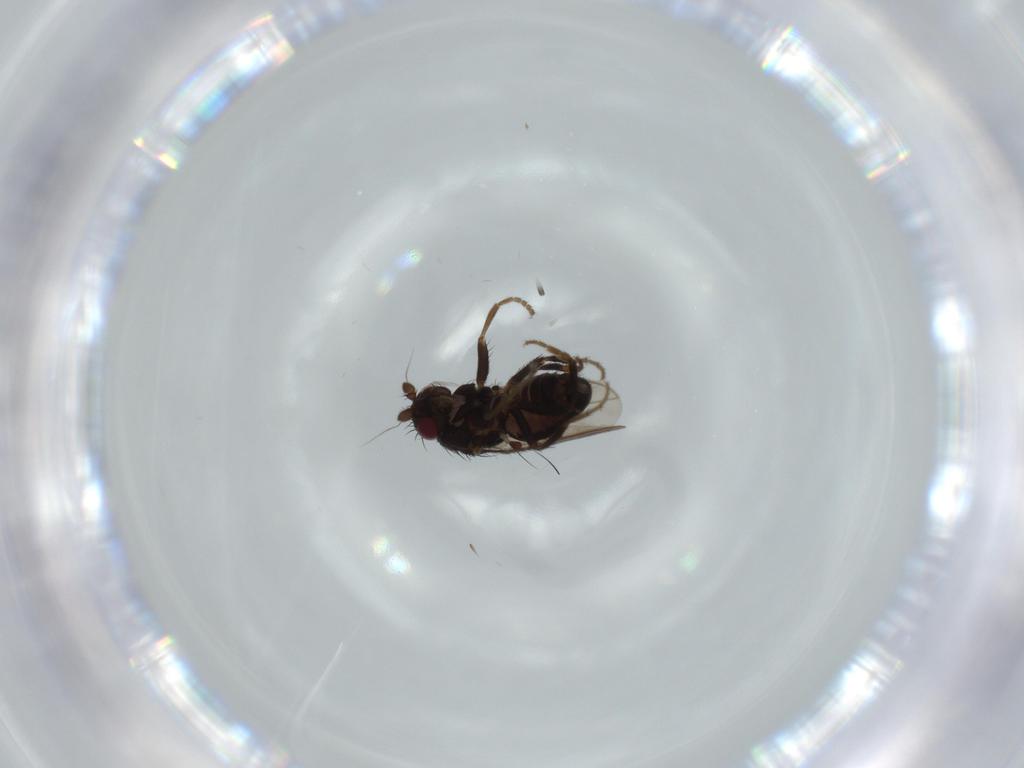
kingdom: Animalia
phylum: Arthropoda
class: Insecta
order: Diptera
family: Sphaeroceridae
